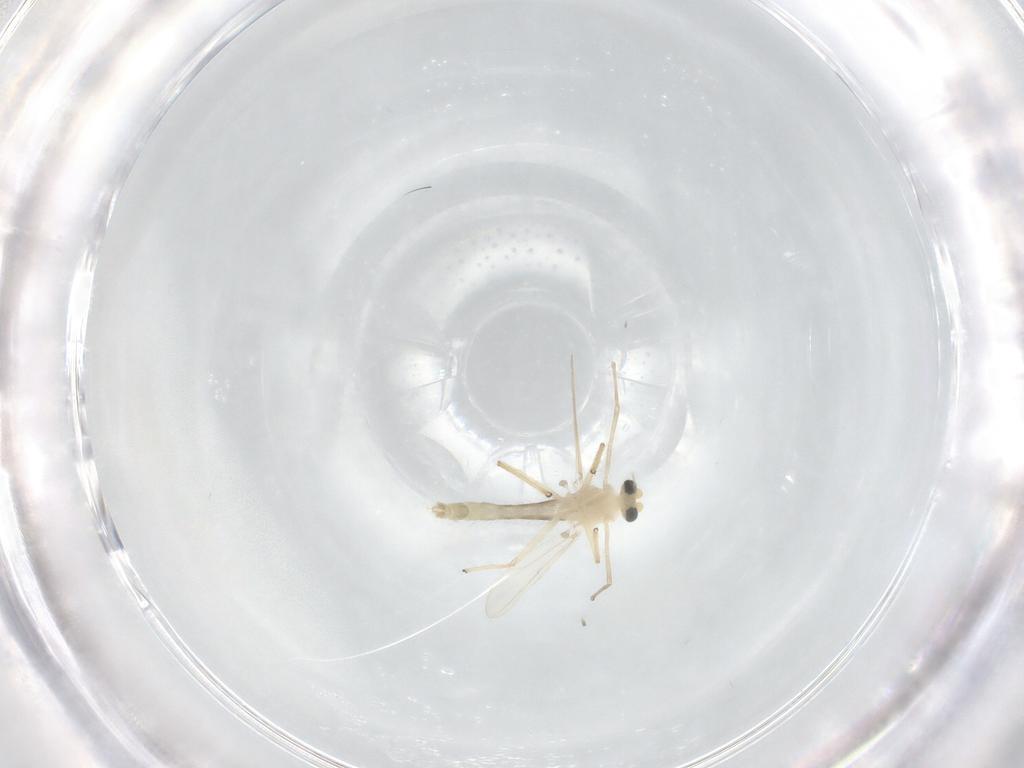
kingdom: Animalia
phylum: Arthropoda
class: Insecta
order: Diptera
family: Chironomidae
